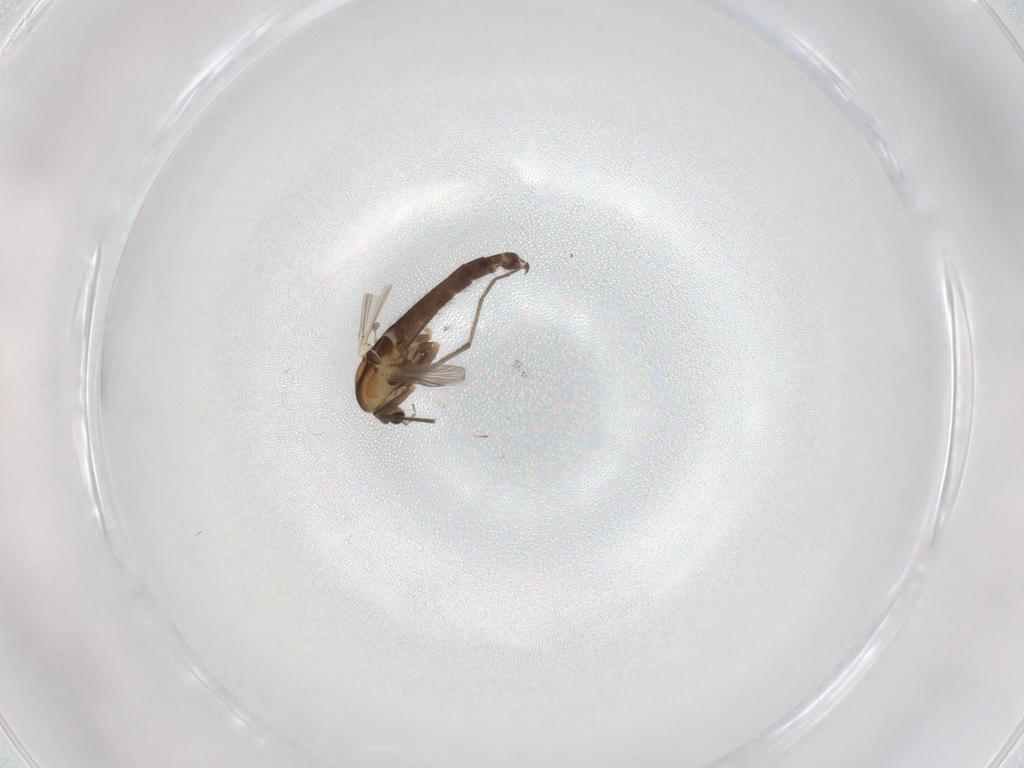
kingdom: Animalia
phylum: Arthropoda
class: Insecta
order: Diptera
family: Chironomidae
